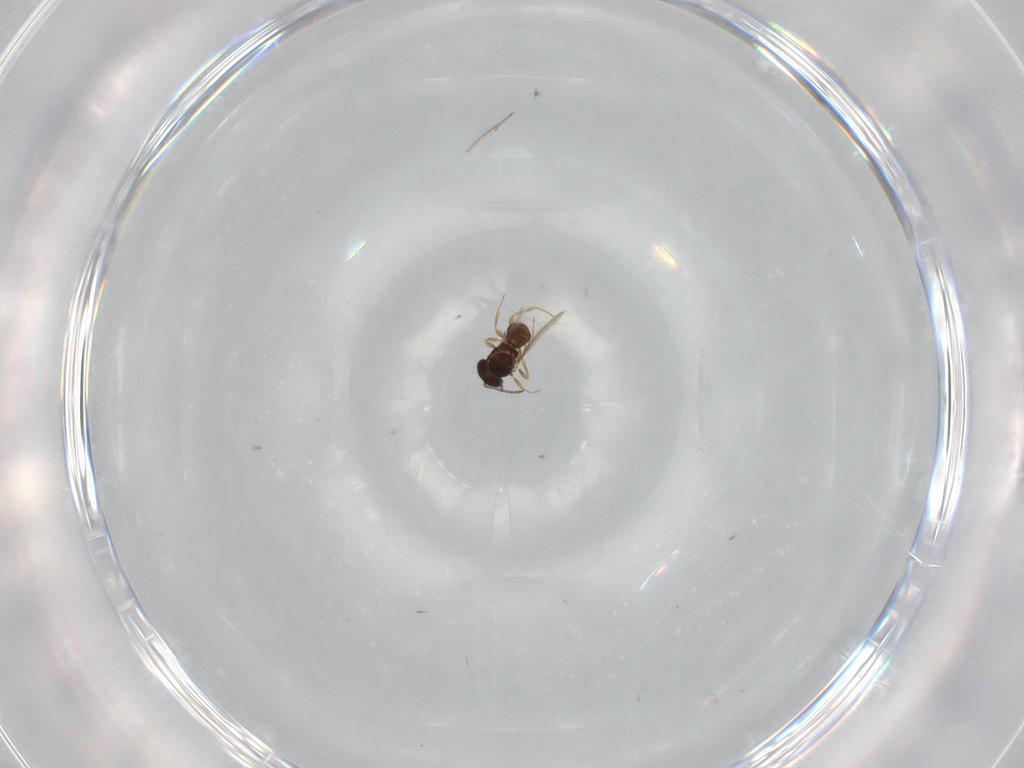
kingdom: Animalia
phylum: Arthropoda
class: Insecta
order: Hymenoptera
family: Scelionidae
